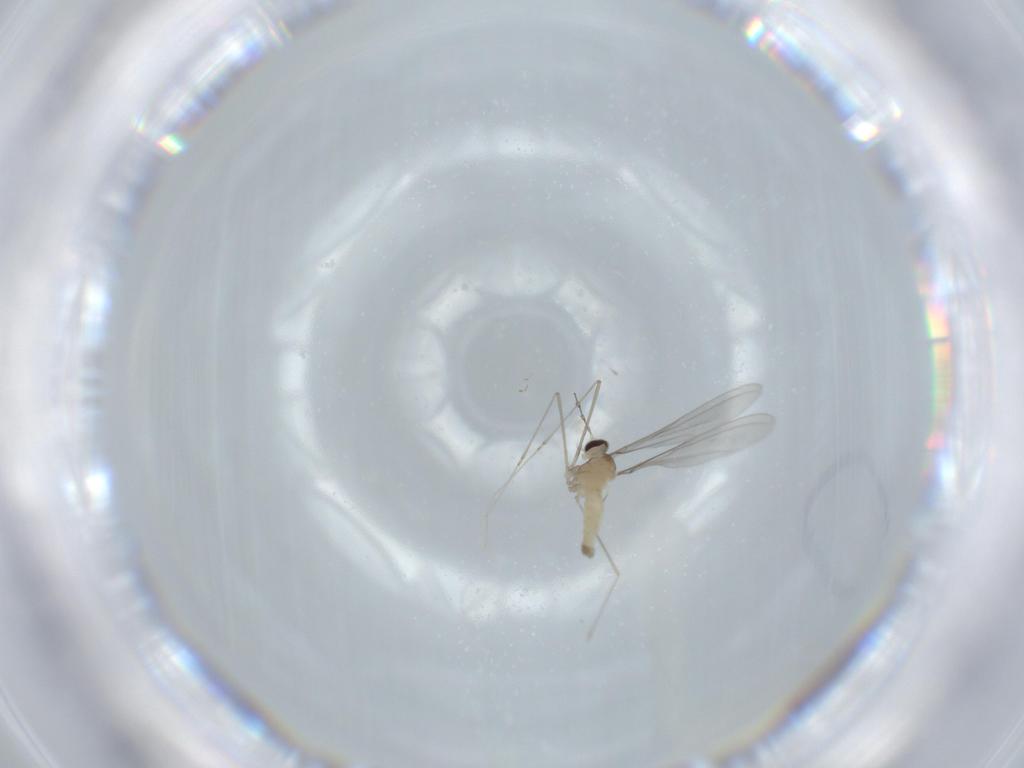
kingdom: Animalia
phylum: Arthropoda
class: Insecta
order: Diptera
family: Cecidomyiidae
